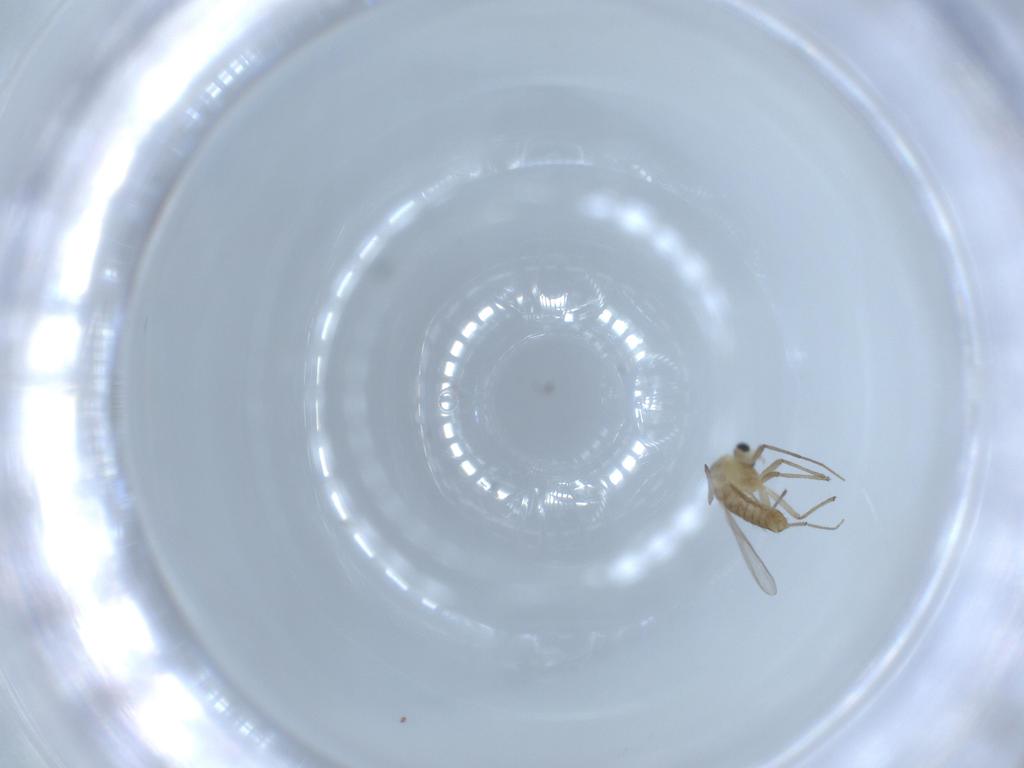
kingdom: Animalia
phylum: Arthropoda
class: Insecta
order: Diptera
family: Chironomidae
